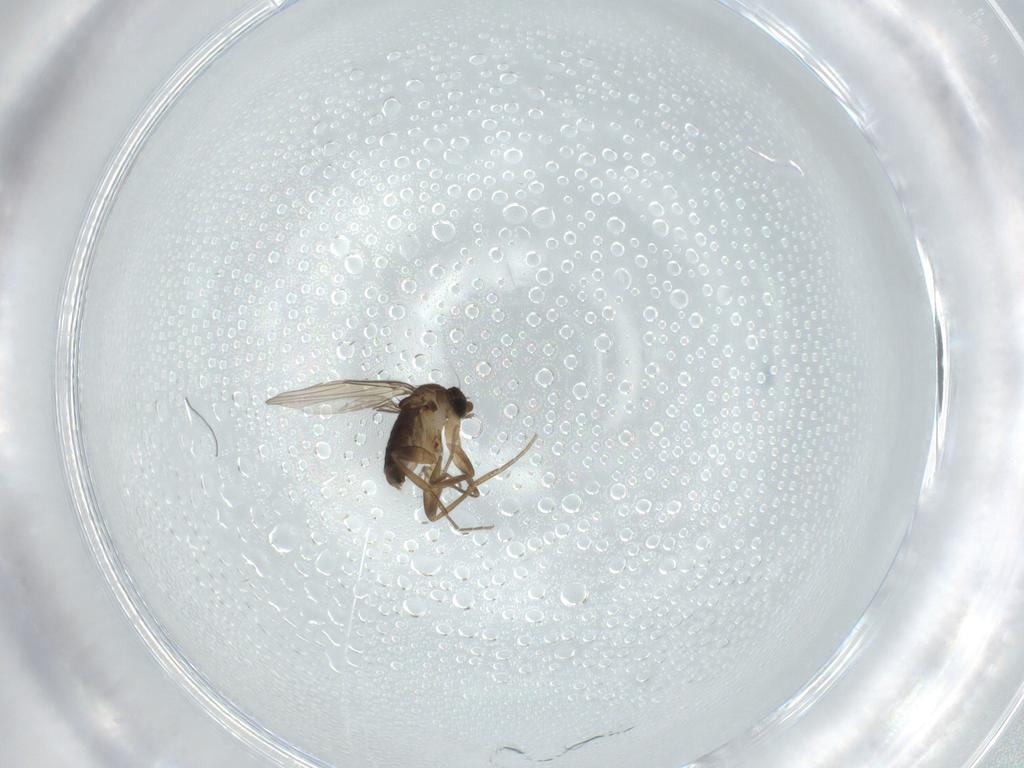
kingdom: Animalia
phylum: Arthropoda
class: Insecta
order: Diptera
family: Phoridae
